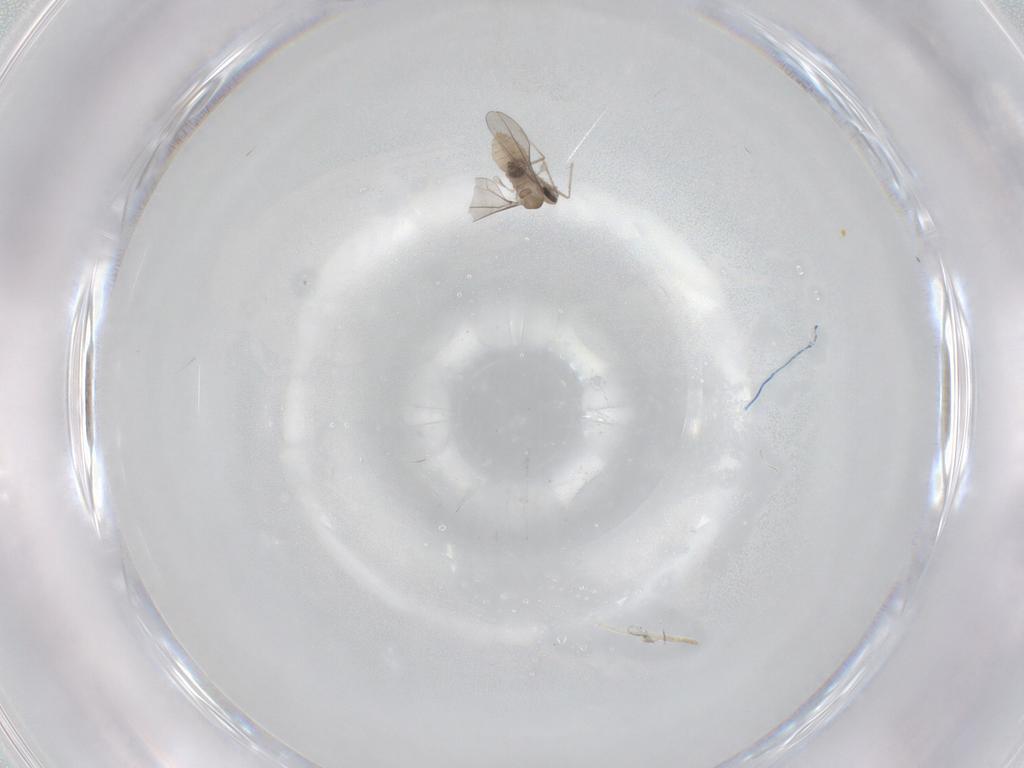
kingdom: Animalia
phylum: Arthropoda
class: Insecta
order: Diptera
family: Cecidomyiidae
